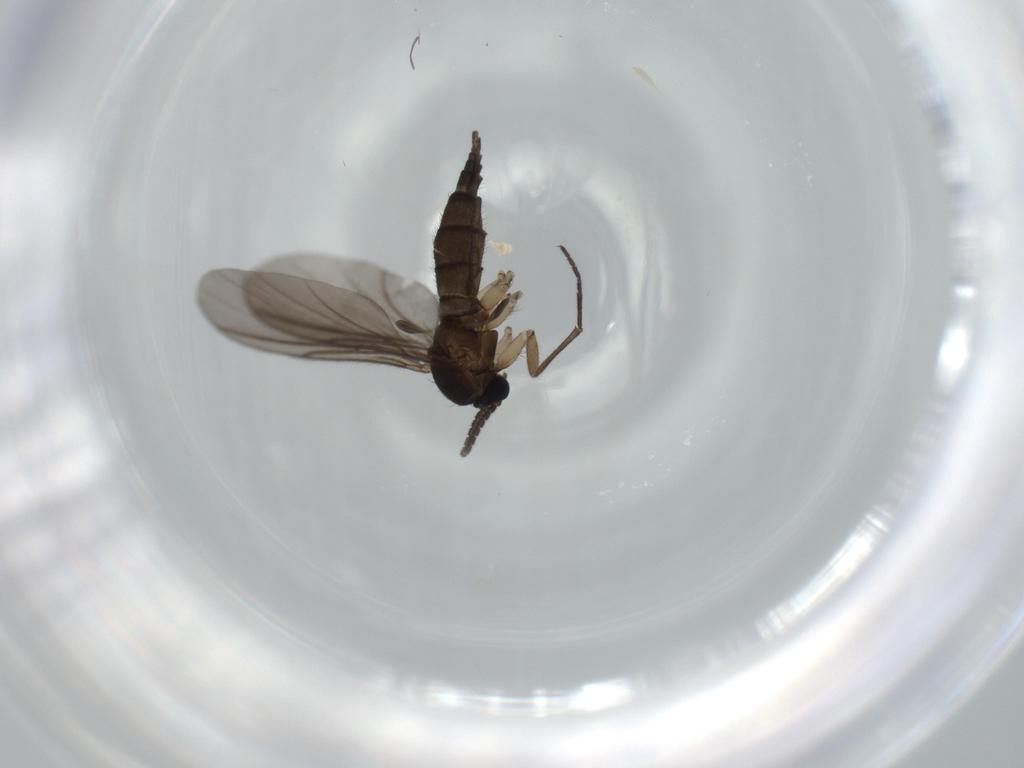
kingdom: Animalia
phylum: Arthropoda
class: Insecta
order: Diptera
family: Sciaridae
